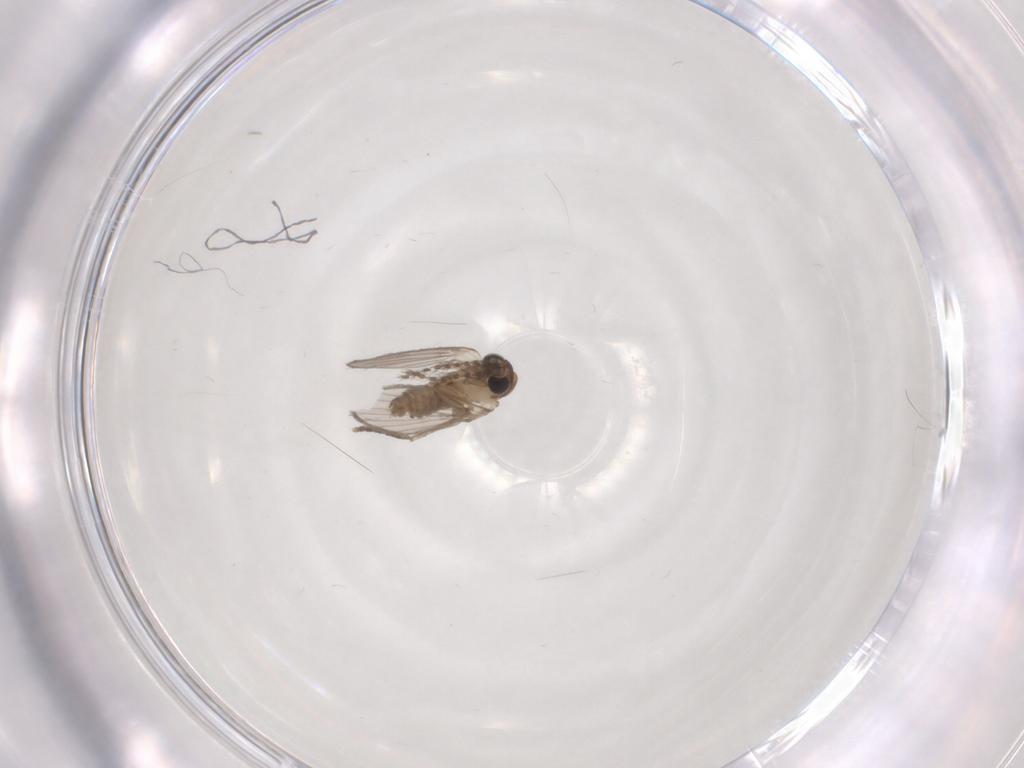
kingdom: Animalia
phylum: Arthropoda
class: Insecta
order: Diptera
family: Psychodidae
